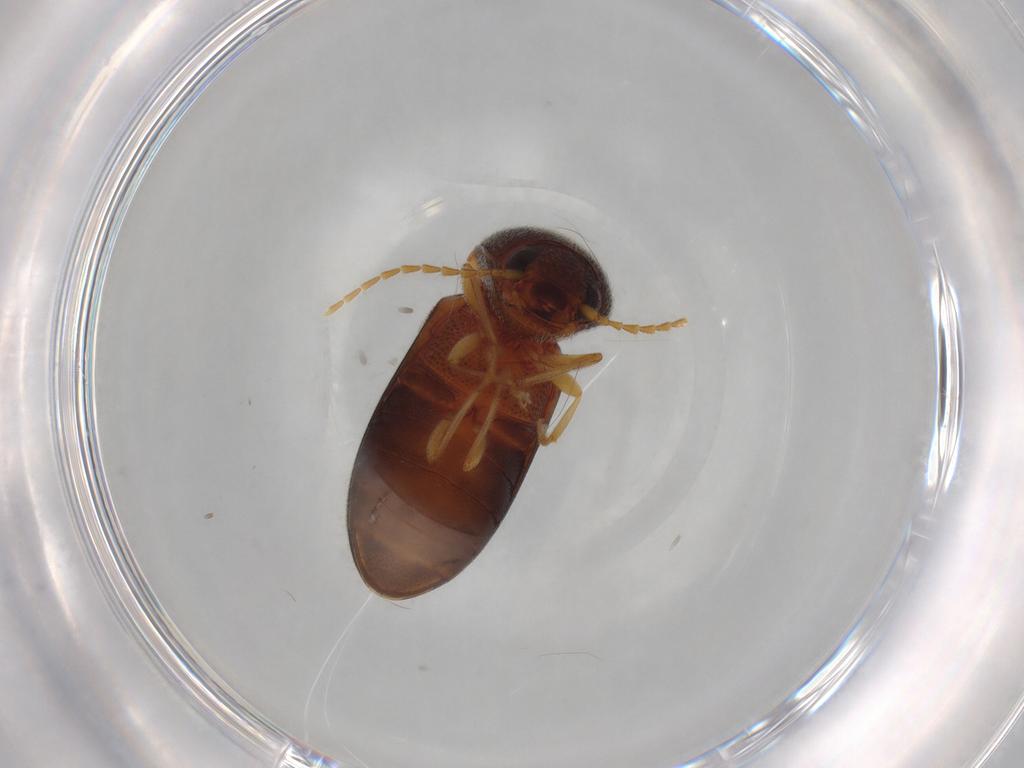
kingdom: Animalia
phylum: Arthropoda
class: Insecta
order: Coleoptera
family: Elateridae
